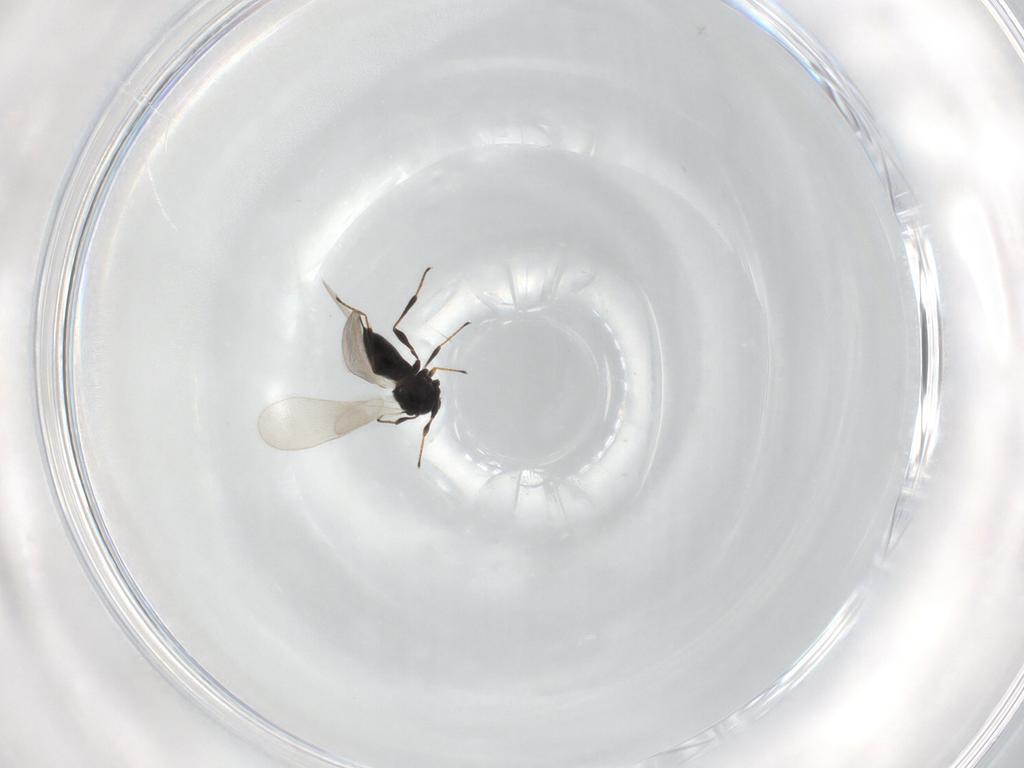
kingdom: Animalia
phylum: Arthropoda
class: Insecta
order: Hymenoptera
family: Platygastridae
